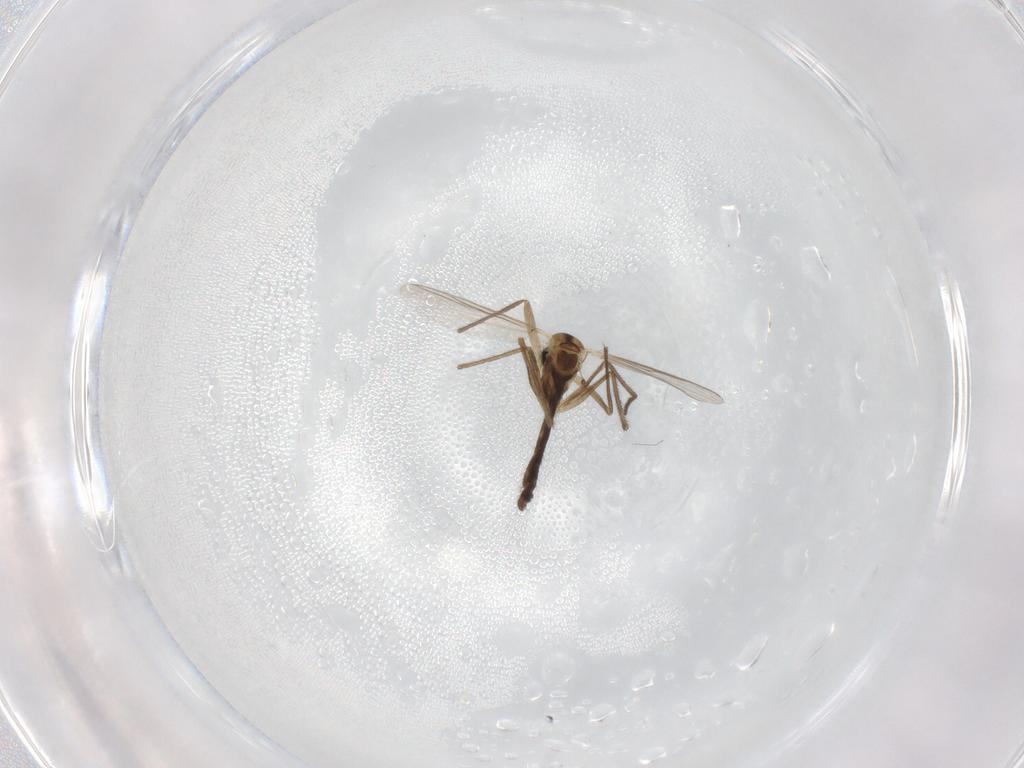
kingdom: Animalia
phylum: Arthropoda
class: Insecta
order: Diptera
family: Chironomidae
